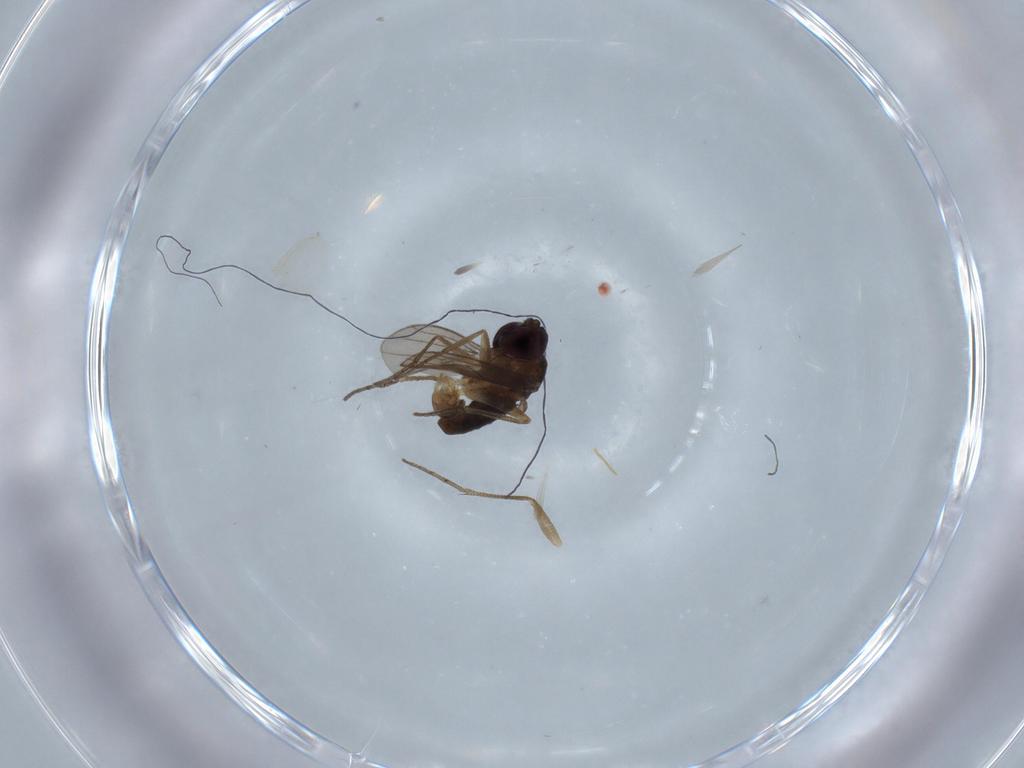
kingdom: Animalia
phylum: Arthropoda
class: Insecta
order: Diptera
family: Dolichopodidae
